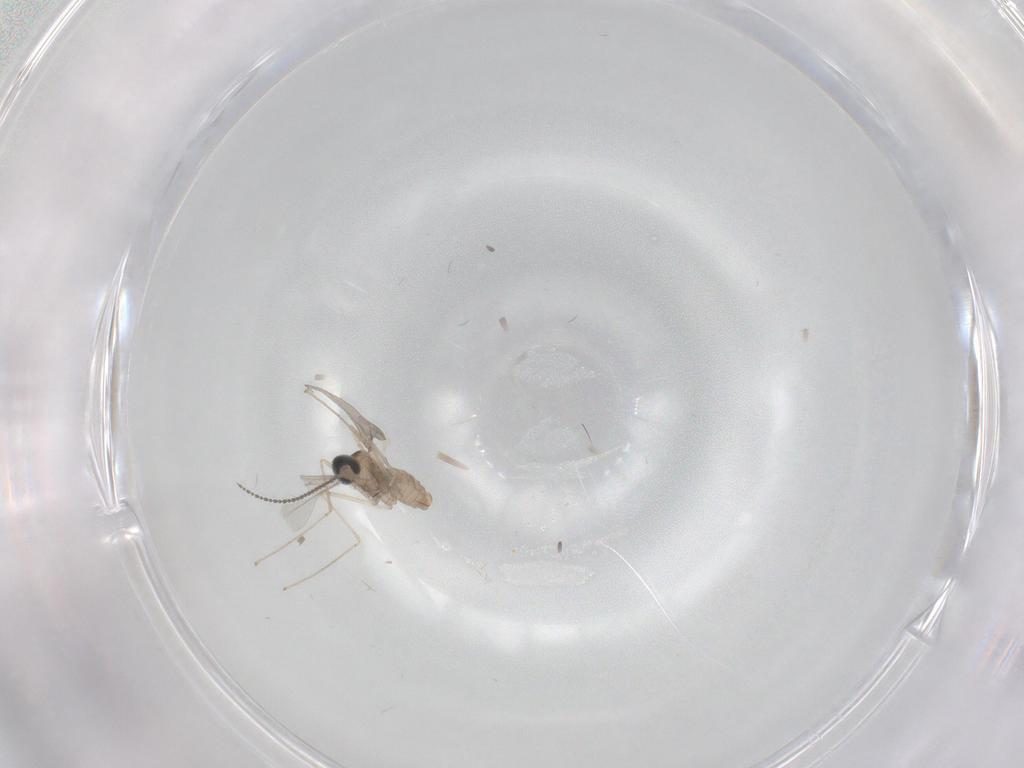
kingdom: Animalia
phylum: Arthropoda
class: Insecta
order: Diptera
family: Cecidomyiidae
